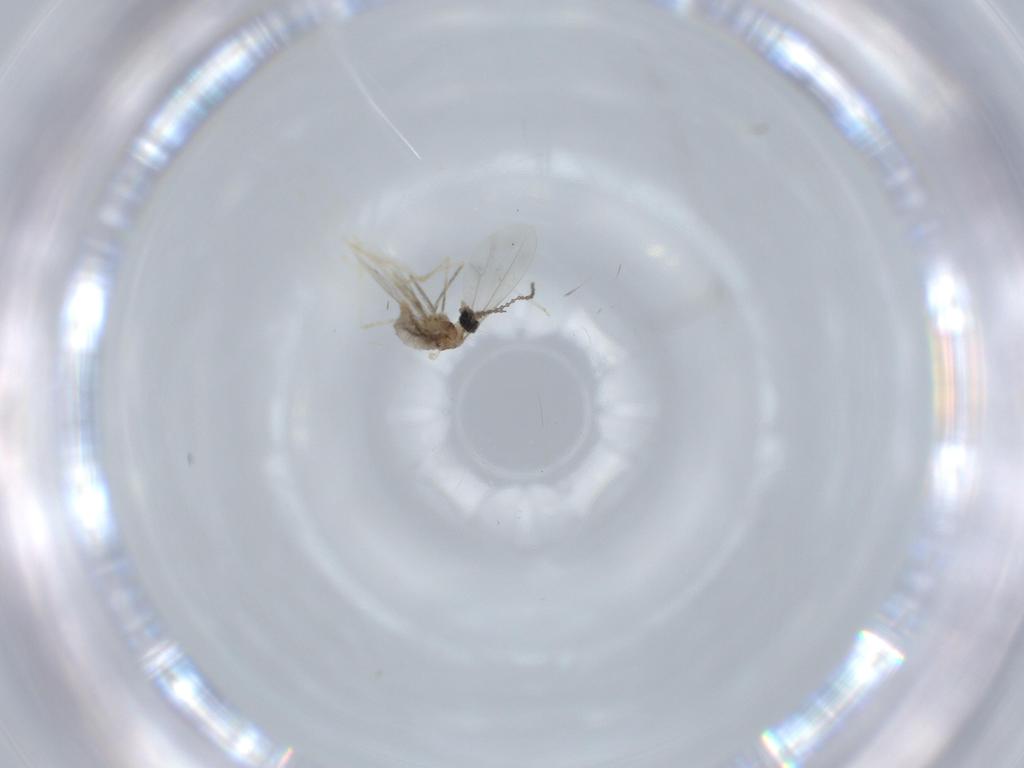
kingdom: Animalia
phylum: Arthropoda
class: Insecta
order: Diptera
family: Cecidomyiidae
